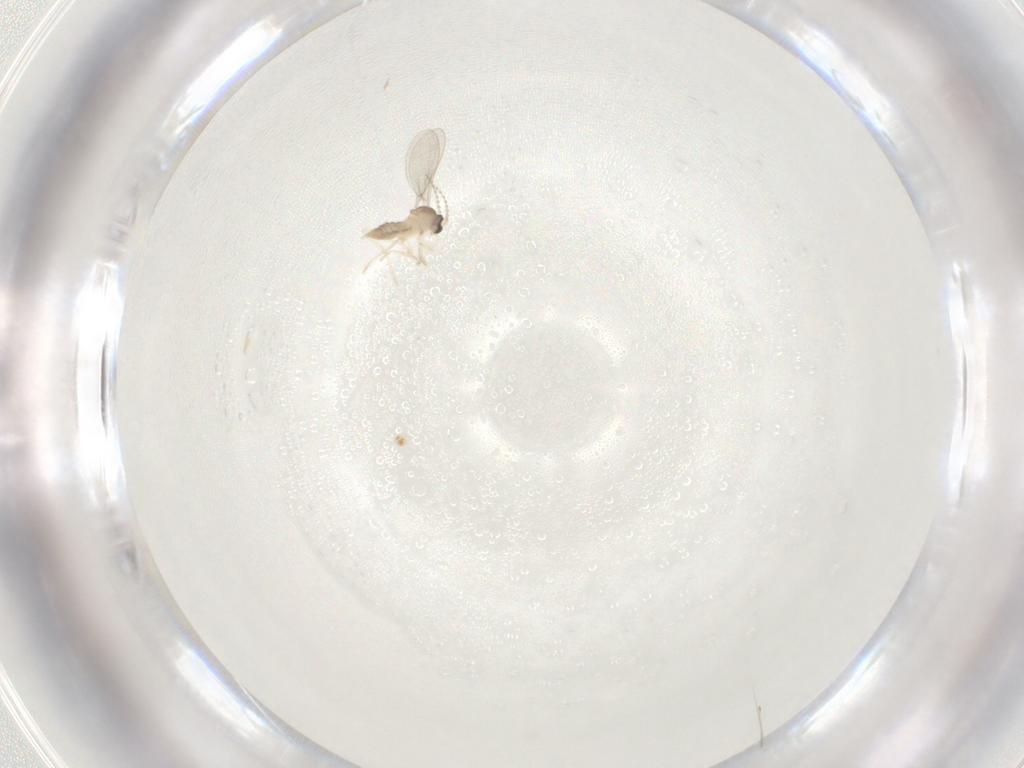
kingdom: Animalia
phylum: Arthropoda
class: Insecta
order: Diptera
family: Cecidomyiidae
